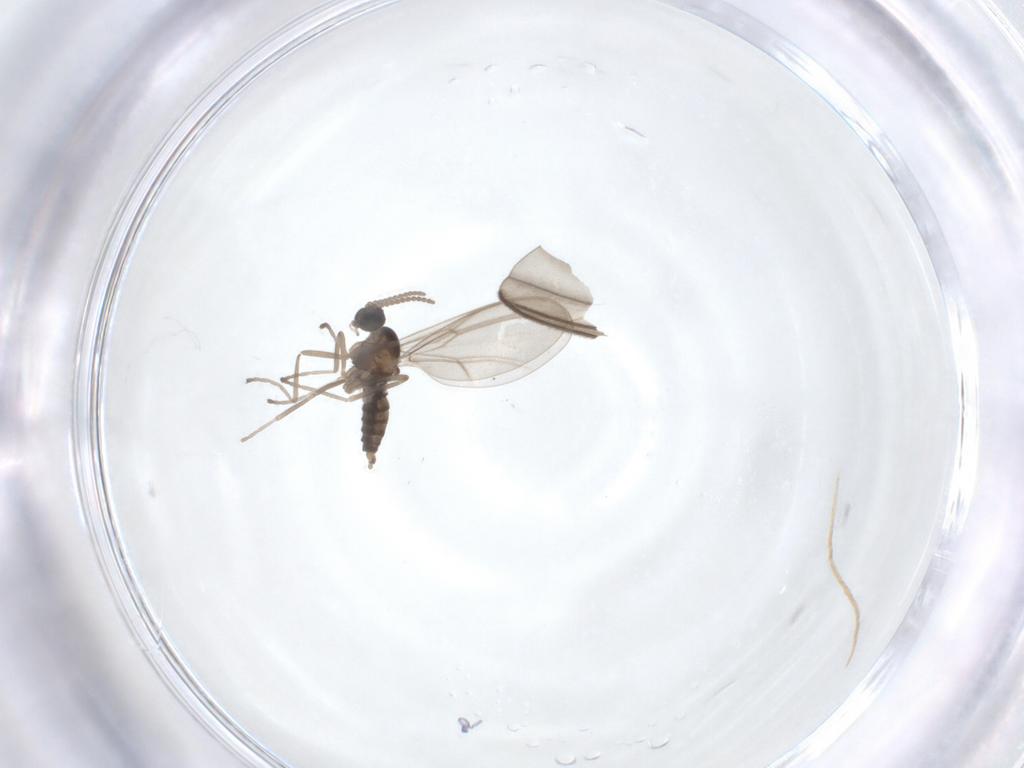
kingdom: Animalia
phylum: Arthropoda
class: Insecta
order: Diptera
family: Cecidomyiidae
